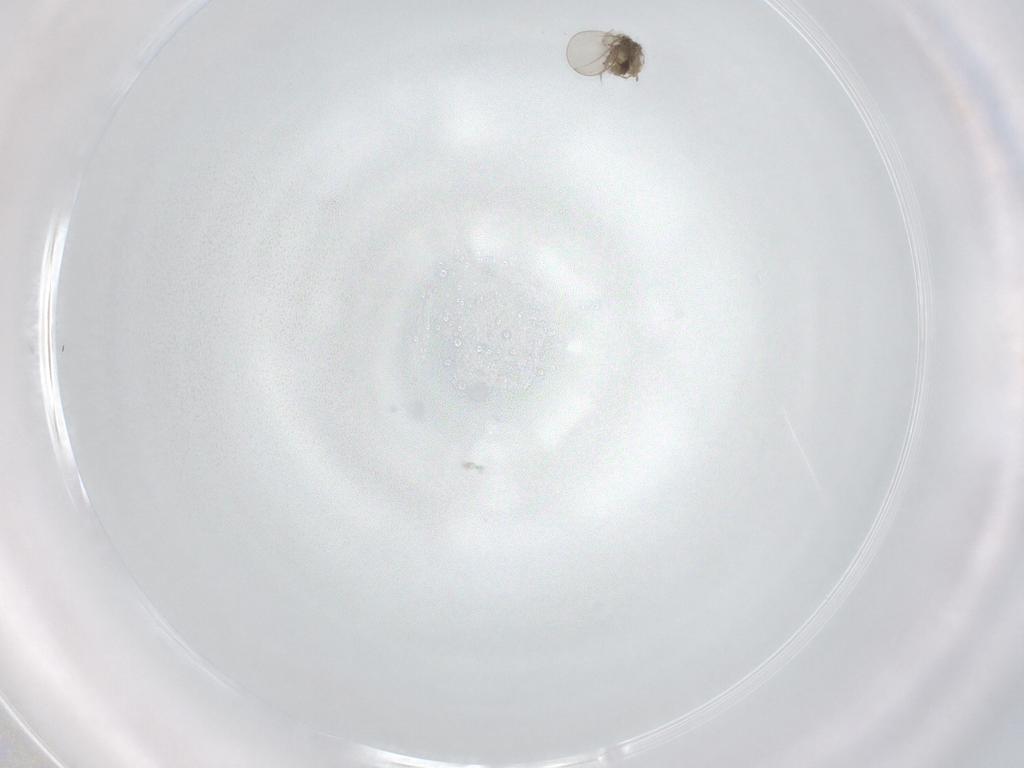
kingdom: Animalia
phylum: Arthropoda
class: Insecta
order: Diptera
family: Cecidomyiidae
